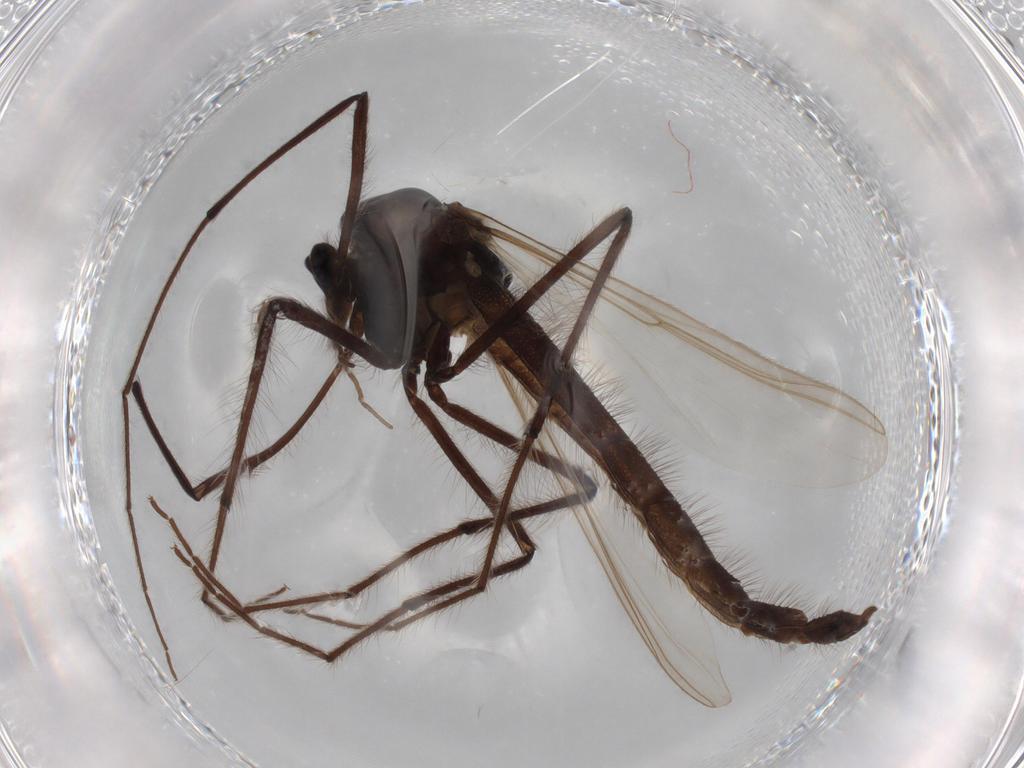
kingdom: Animalia
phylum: Arthropoda
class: Insecta
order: Diptera
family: Chironomidae
